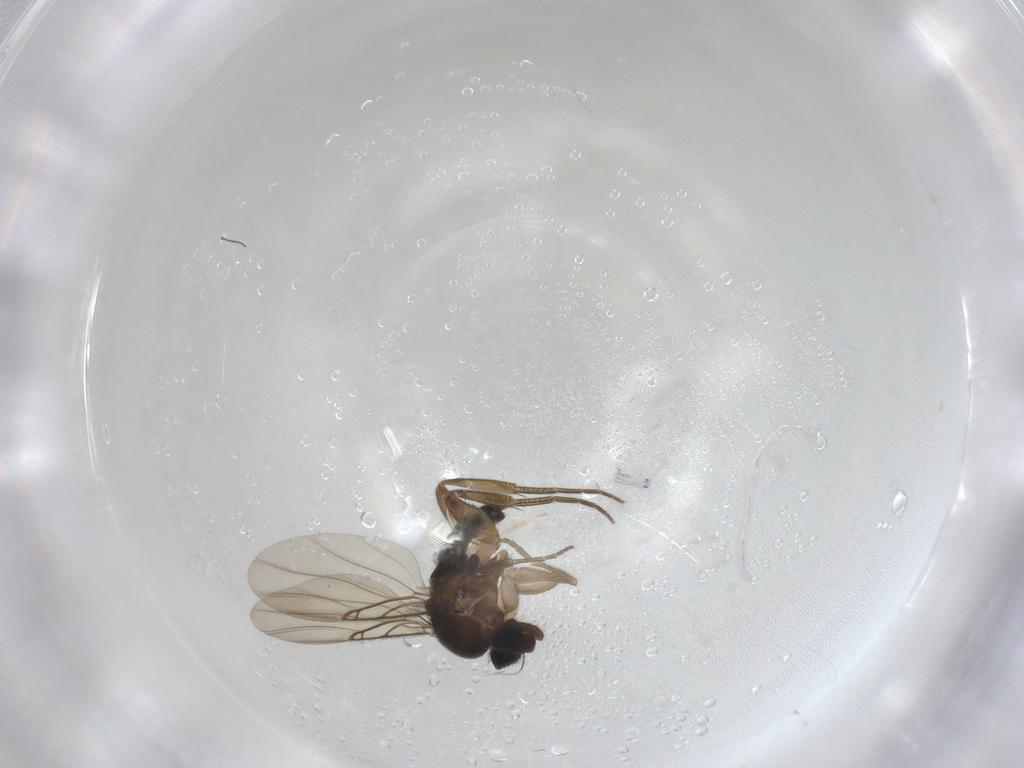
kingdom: Animalia
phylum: Arthropoda
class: Insecta
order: Diptera
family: Phoridae
